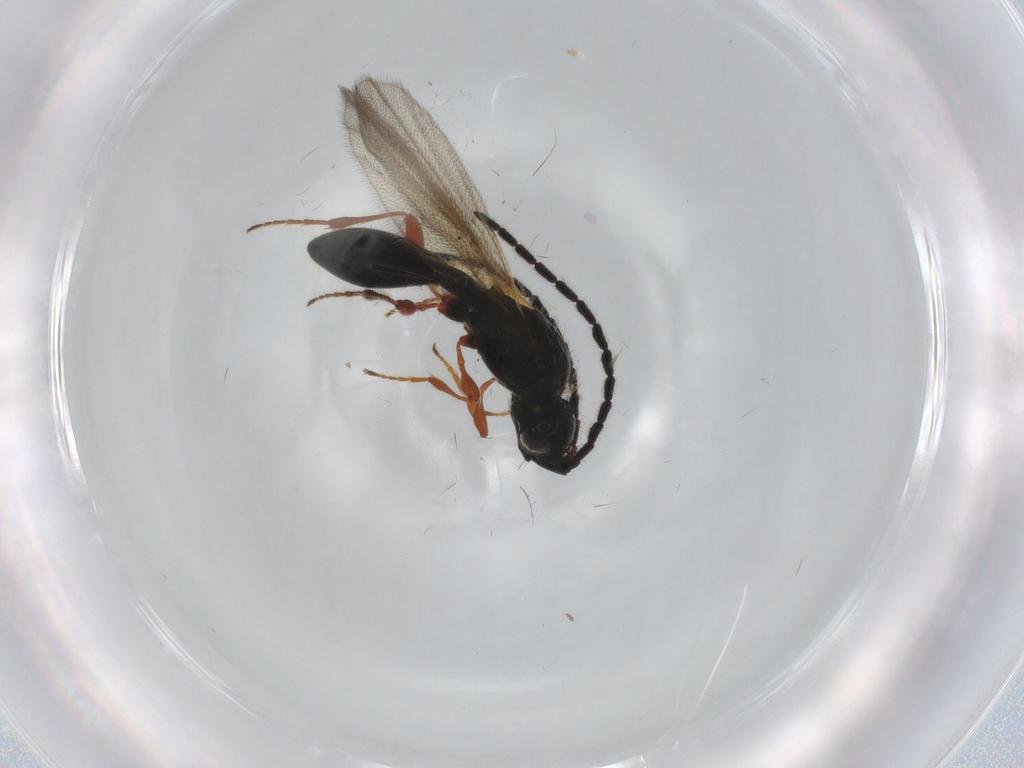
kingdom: Animalia
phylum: Arthropoda
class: Insecta
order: Hymenoptera
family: Diapriidae
